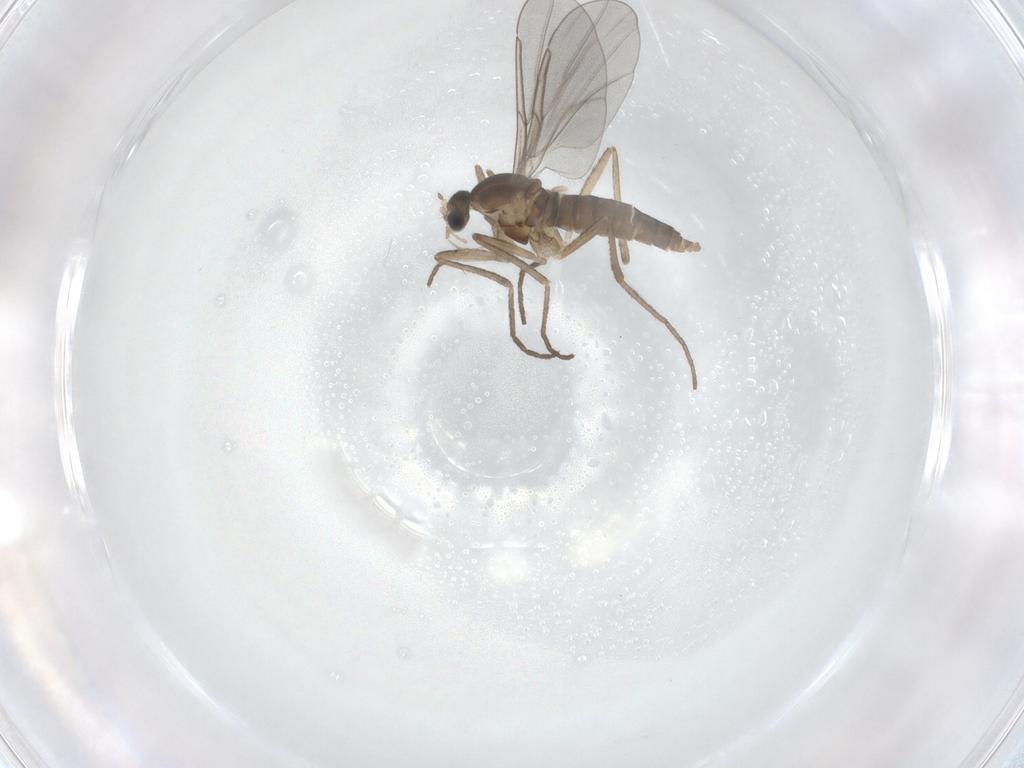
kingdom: Animalia
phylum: Arthropoda
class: Insecta
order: Diptera
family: Cecidomyiidae
